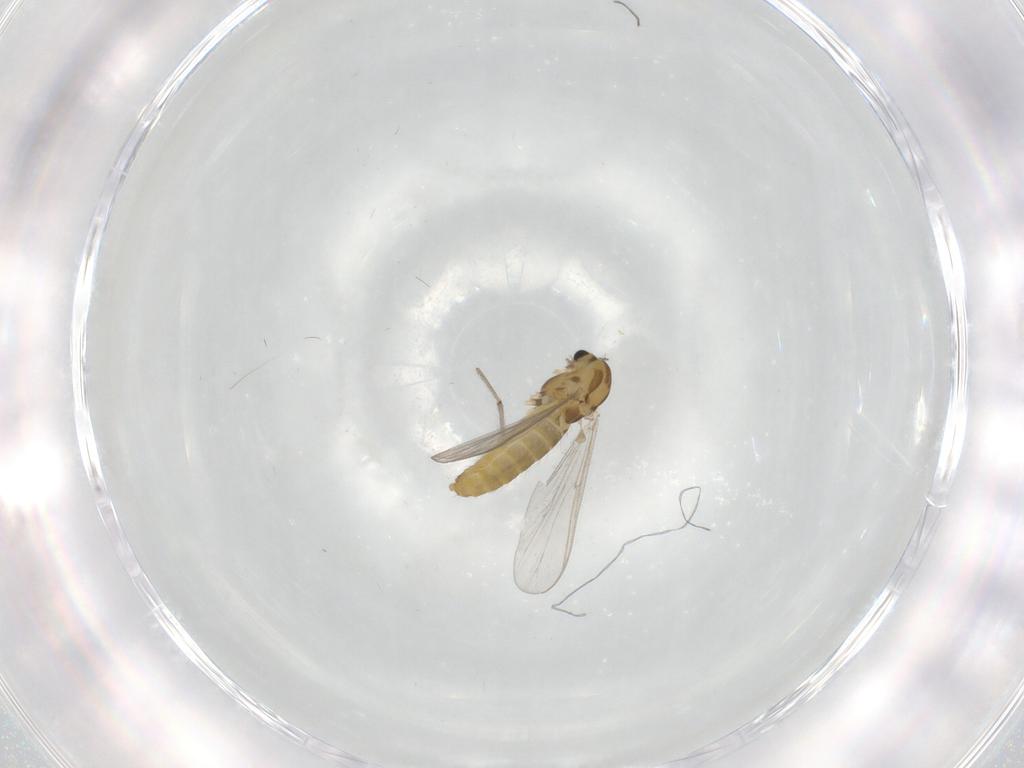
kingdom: Animalia
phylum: Arthropoda
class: Insecta
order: Diptera
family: Chironomidae
